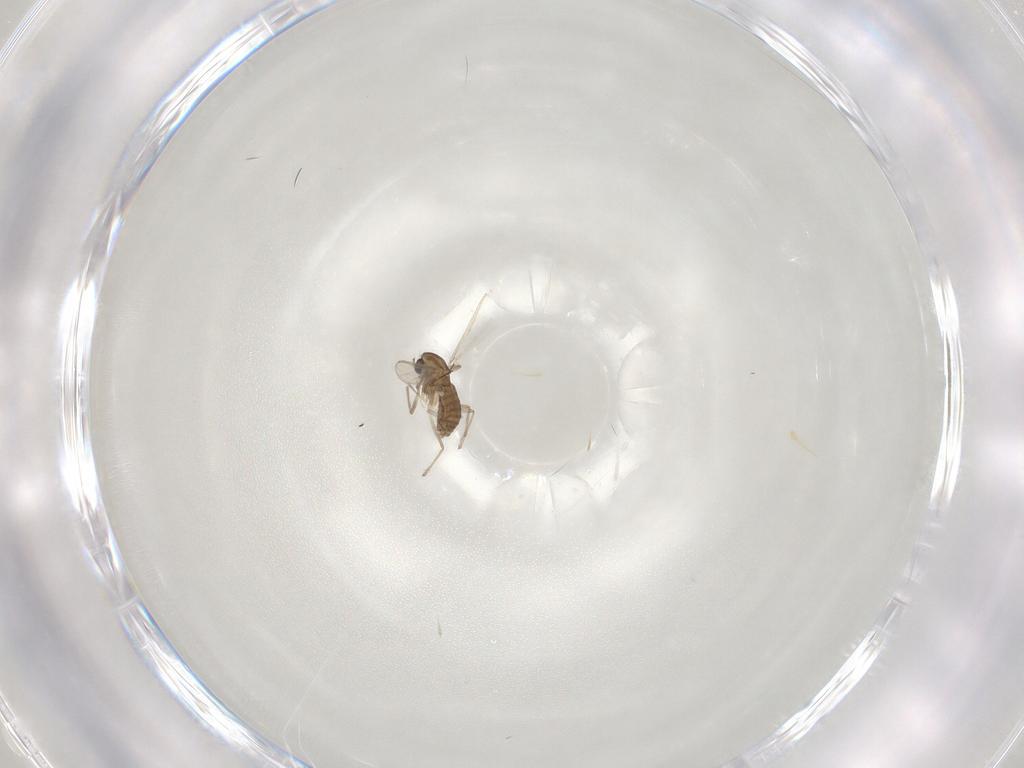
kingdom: Animalia
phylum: Arthropoda
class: Insecta
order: Diptera
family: Chironomidae
